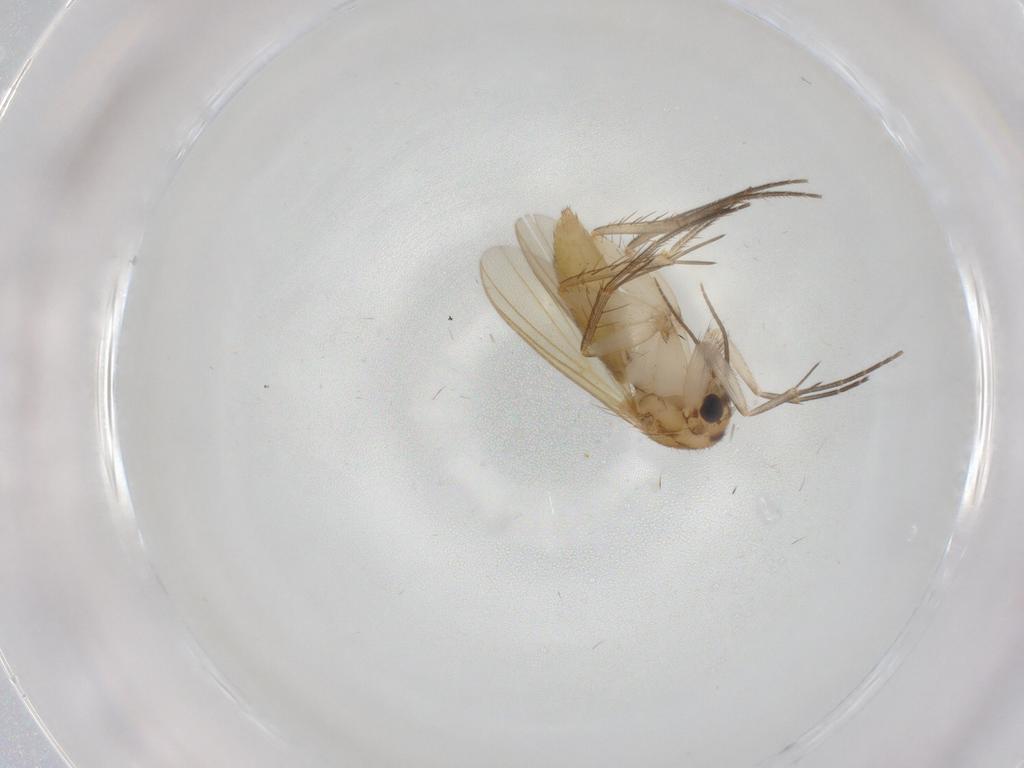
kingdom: Animalia
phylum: Arthropoda
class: Insecta
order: Diptera
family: Mycetophilidae
